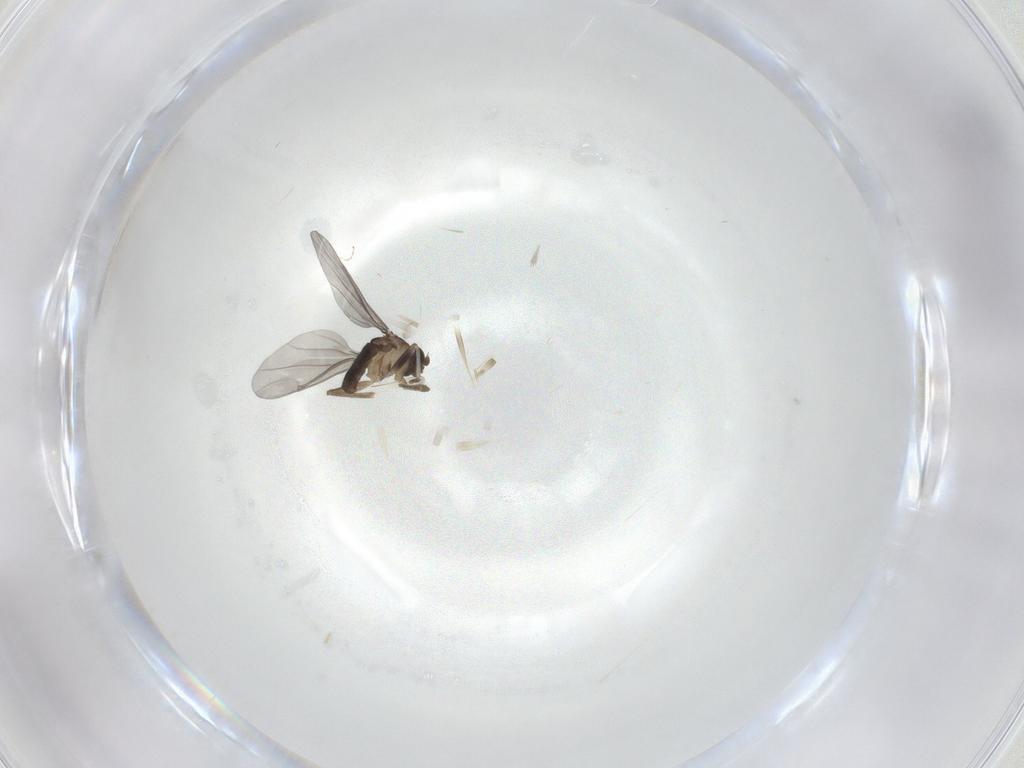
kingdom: Animalia
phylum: Arthropoda
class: Insecta
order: Diptera
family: Phoridae
